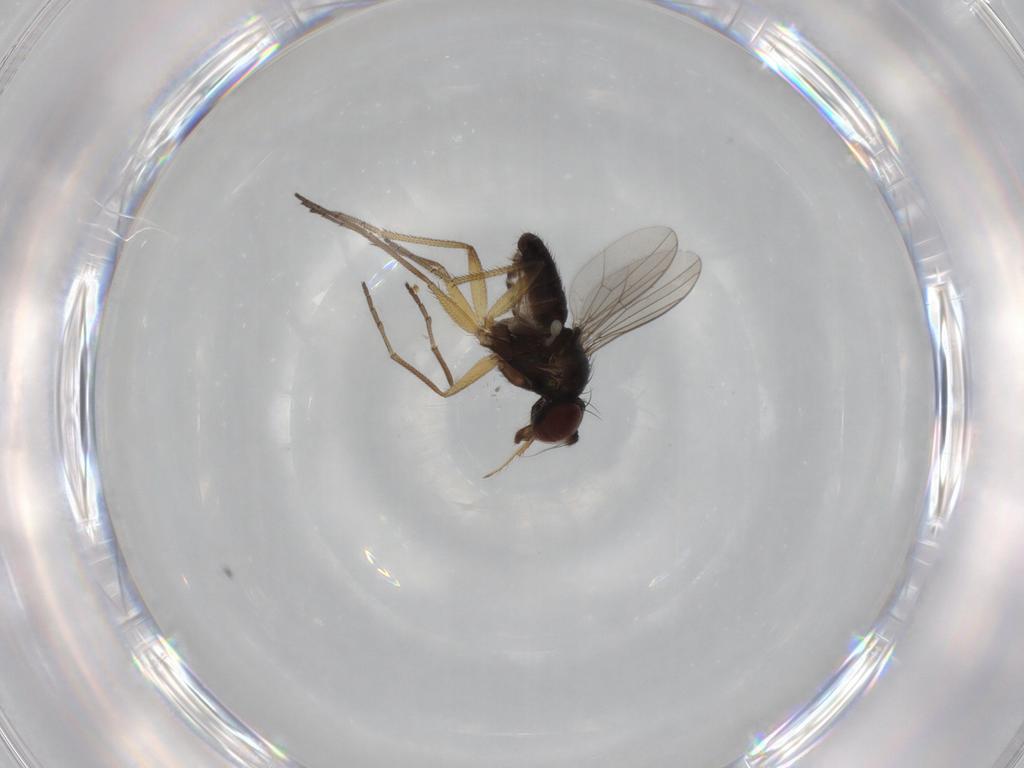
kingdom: Animalia
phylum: Arthropoda
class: Insecta
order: Diptera
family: Dolichopodidae
